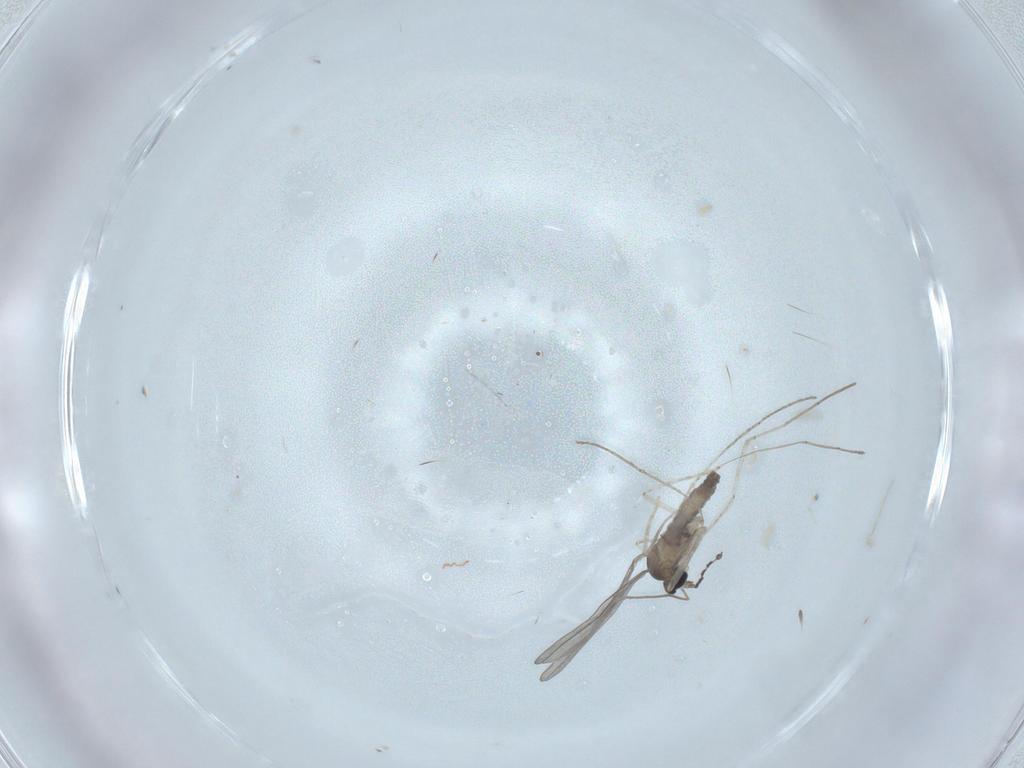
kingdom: Animalia
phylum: Arthropoda
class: Insecta
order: Diptera
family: Cecidomyiidae
